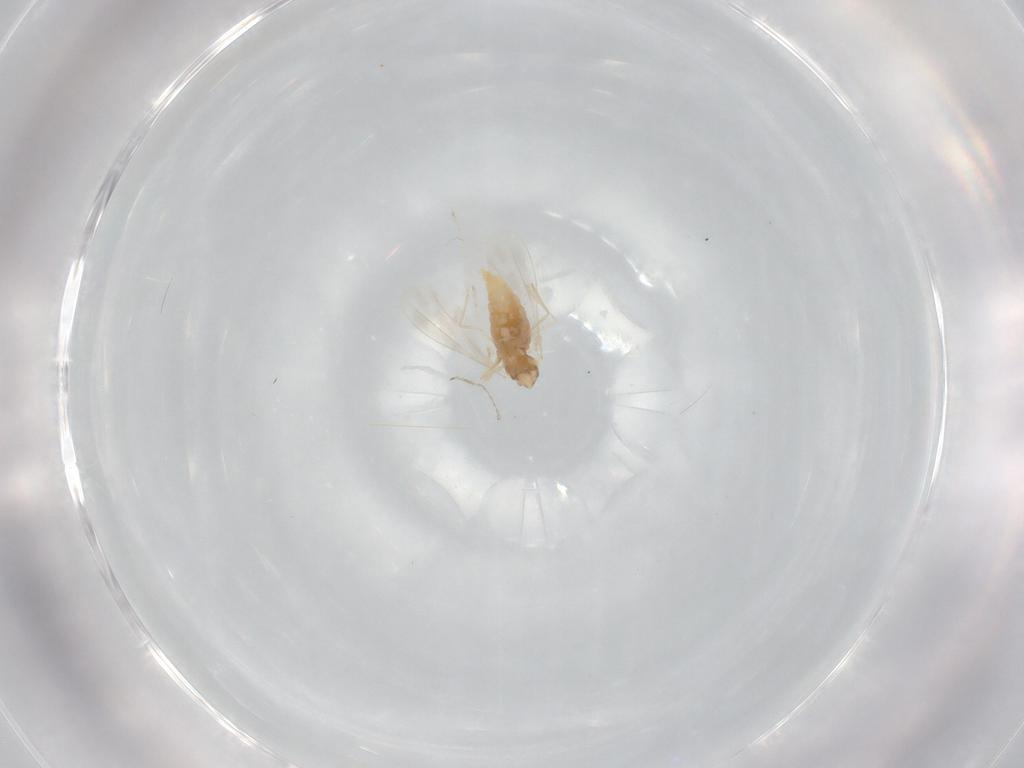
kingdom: Animalia
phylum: Arthropoda
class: Insecta
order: Diptera
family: Cecidomyiidae
